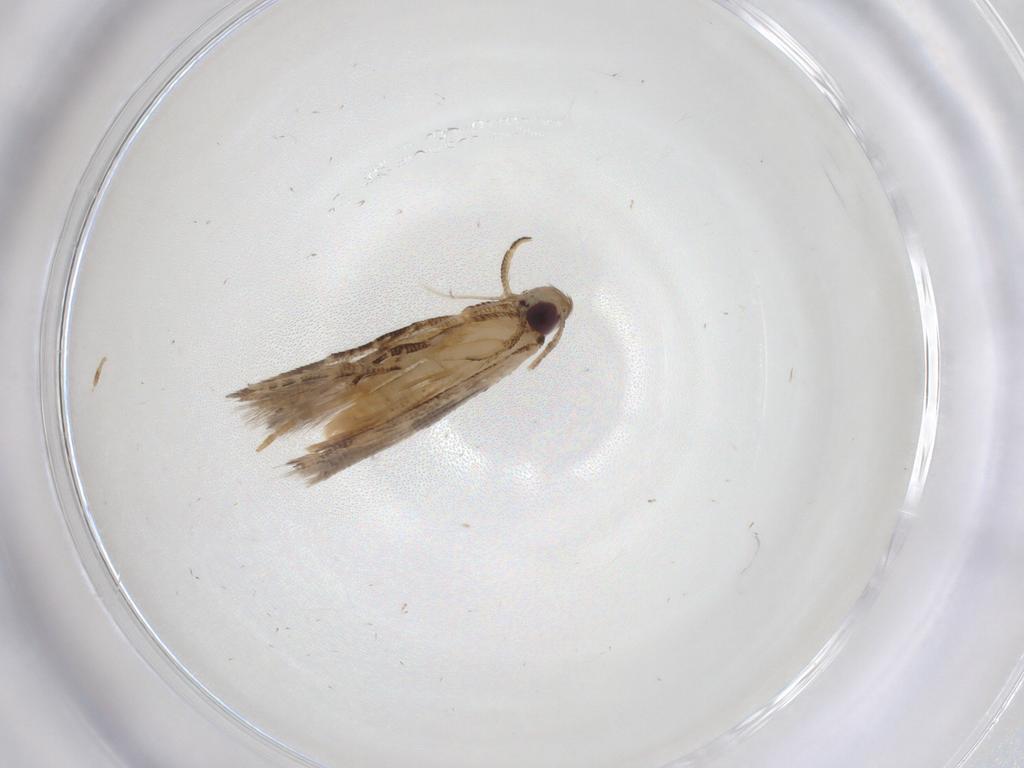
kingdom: Animalia
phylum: Arthropoda
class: Insecta
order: Lepidoptera
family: Cosmopterigidae
